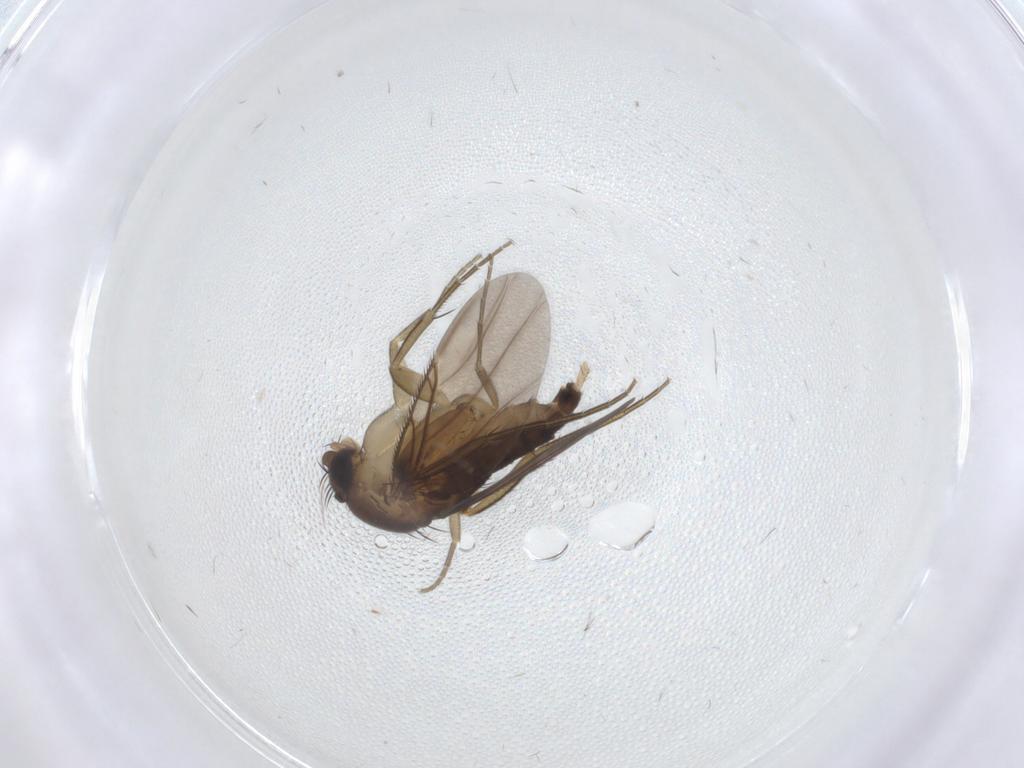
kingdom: Animalia
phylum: Arthropoda
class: Insecta
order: Diptera
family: Phoridae
